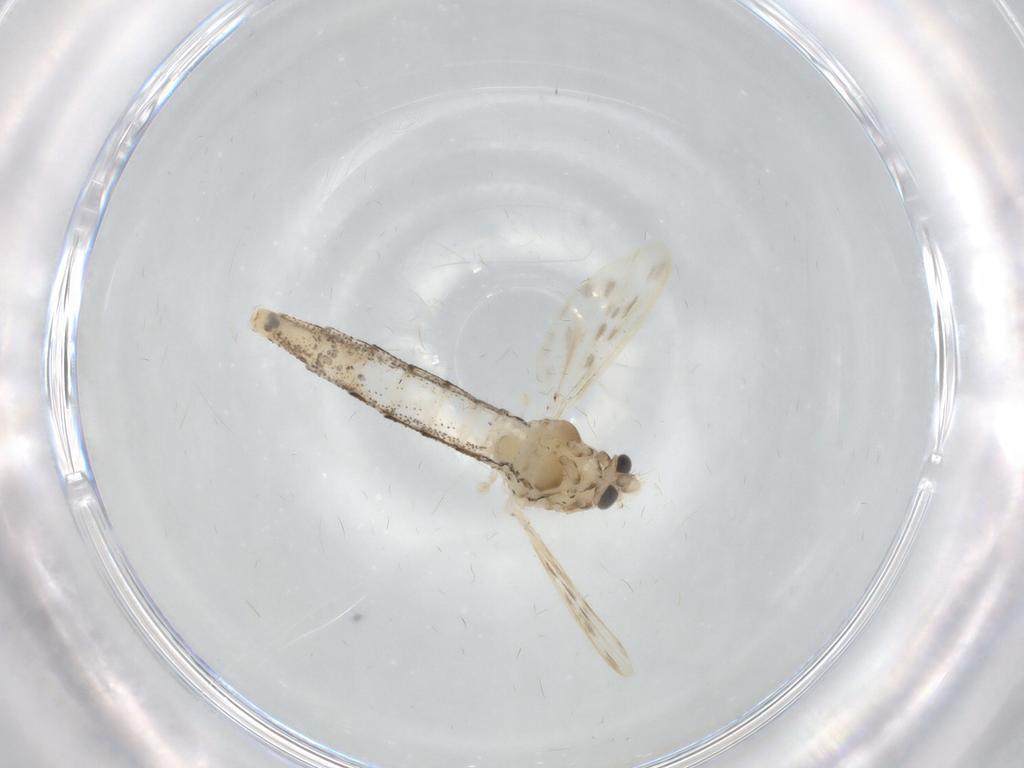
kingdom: Animalia
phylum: Arthropoda
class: Insecta
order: Diptera
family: Chaoboridae
